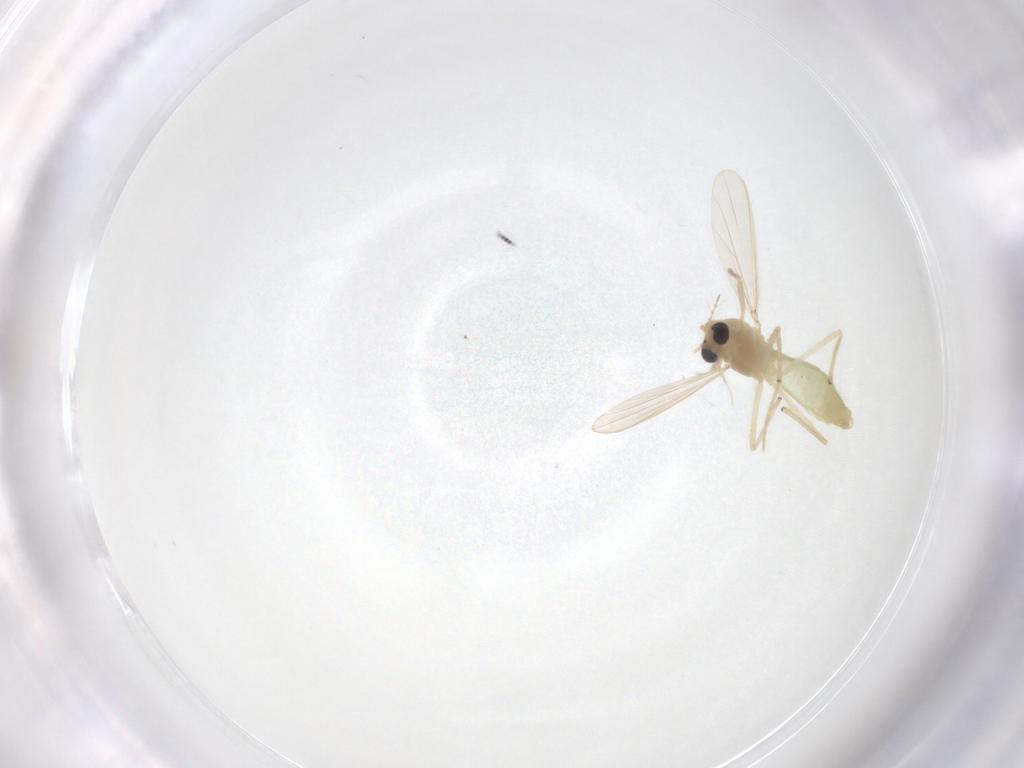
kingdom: Animalia
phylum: Arthropoda
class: Insecta
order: Diptera
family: Chironomidae
